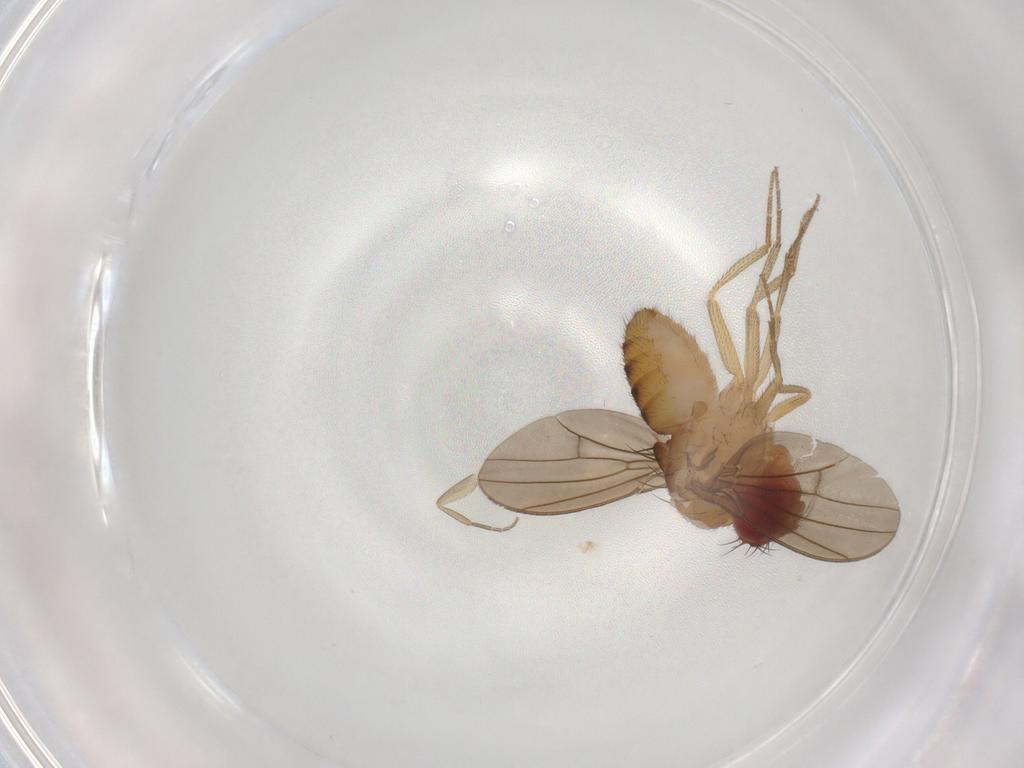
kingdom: Animalia
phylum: Arthropoda
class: Insecta
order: Diptera
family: Drosophilidae
